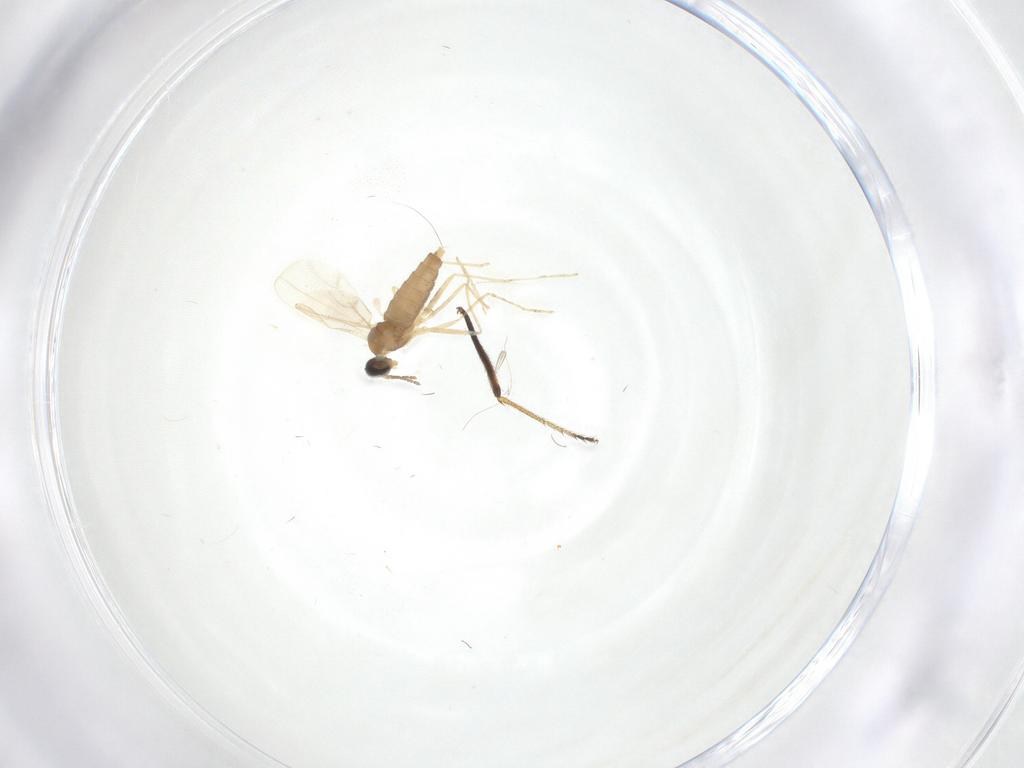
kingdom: Animalia
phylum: Arthropoda
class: Insecta
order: Diptera
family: Cecidomyiidae
